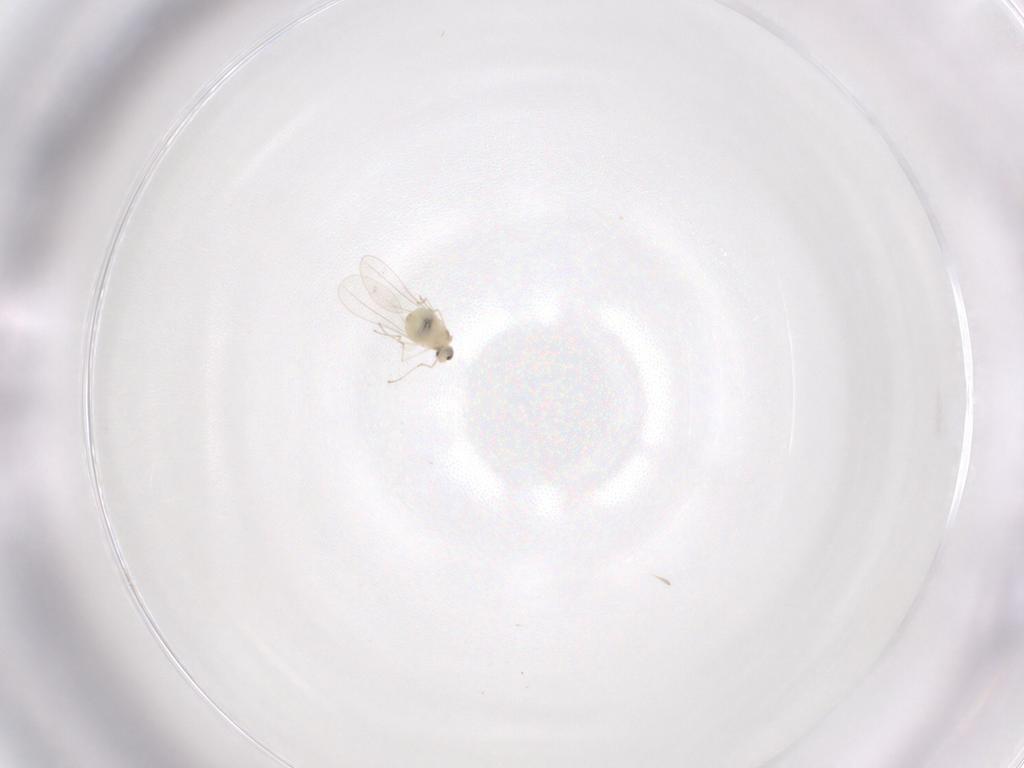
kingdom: Animalia
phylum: Arthropoda
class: Insecta
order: Diptera
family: Cecidomyiidae
